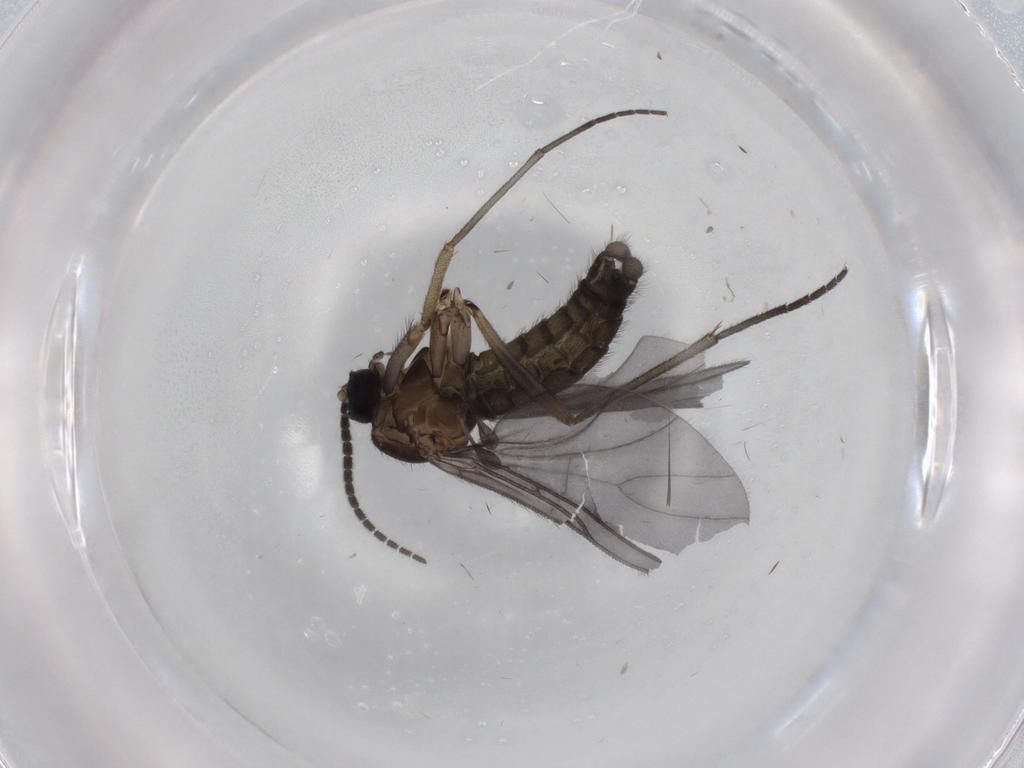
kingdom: Animalia
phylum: Arthropoda
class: Insecta
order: Diptera
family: Sciaridae
